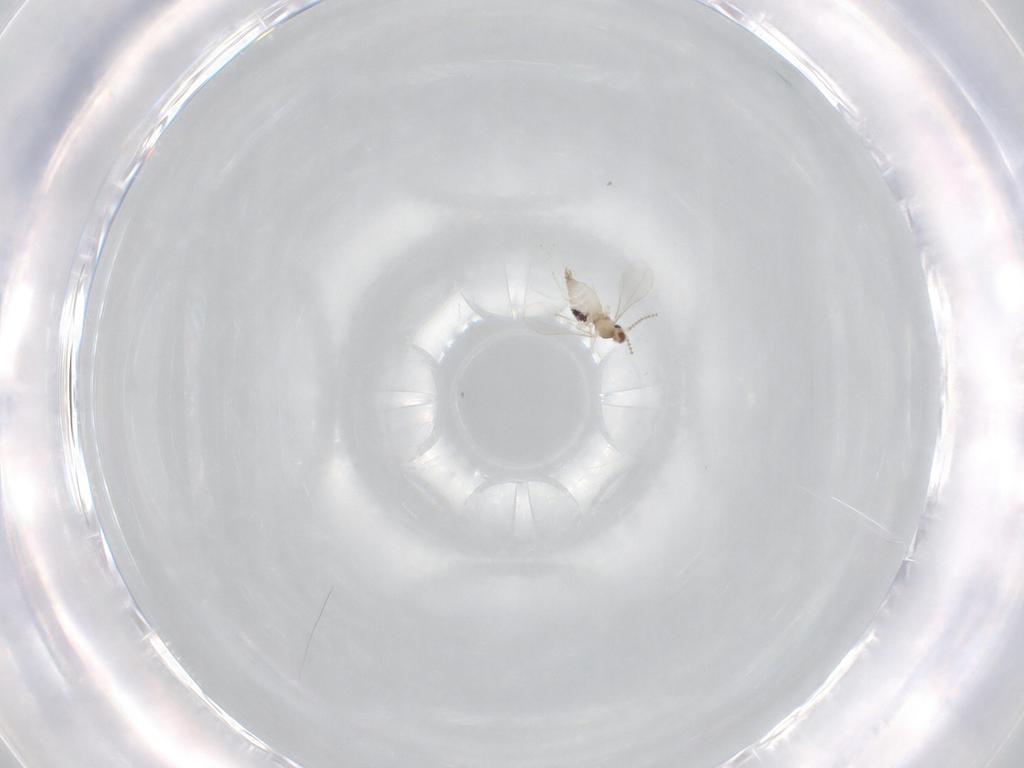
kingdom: Animalia
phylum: Arthropoda
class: Insecta
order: Diptera
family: Cecidomyiidae
